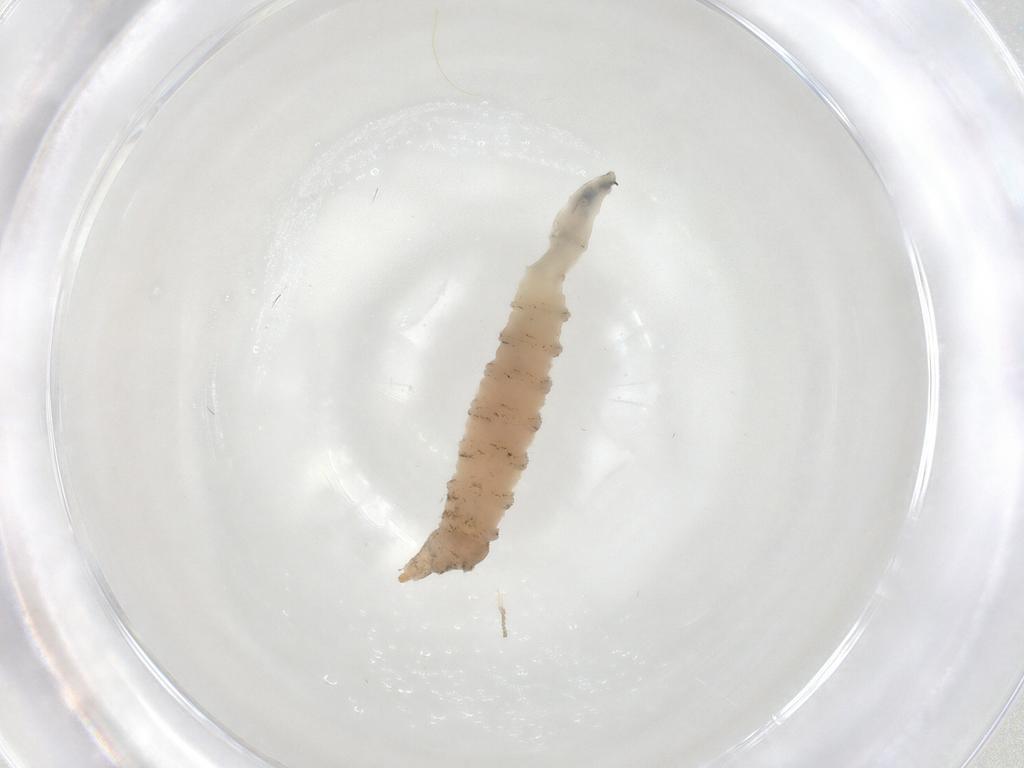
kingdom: Animalia
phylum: Arthropoda
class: Insecta
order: Diptera
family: Drosophilidae
